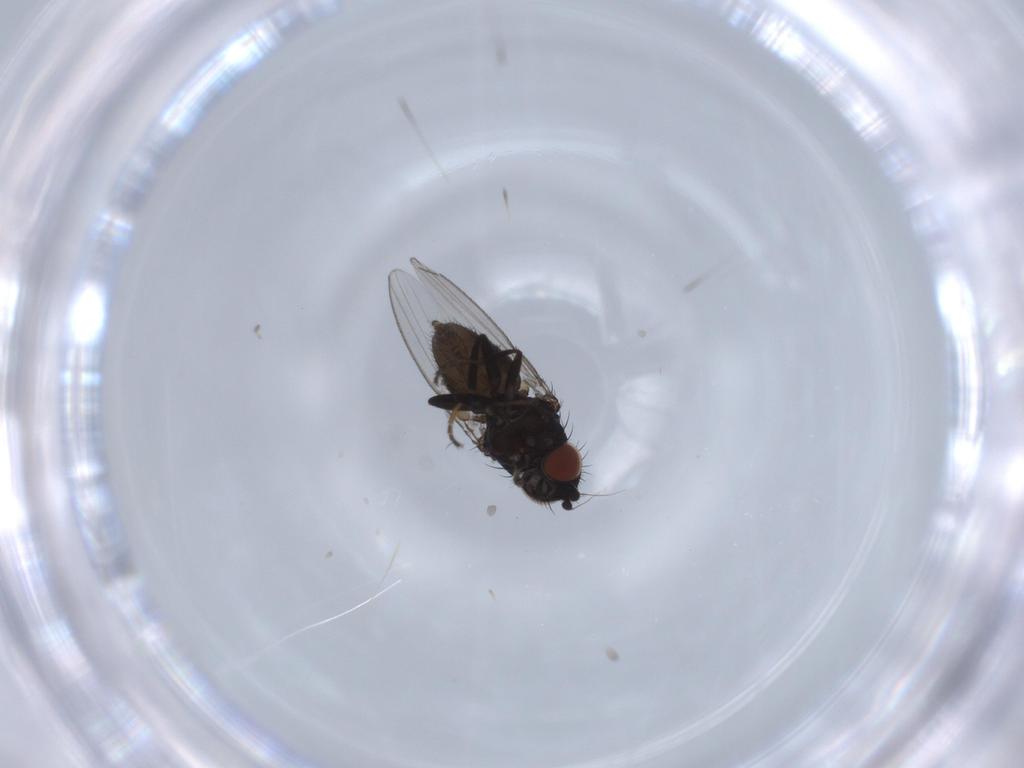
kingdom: Animalia
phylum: Arthropoda
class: Insecta
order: Diptera
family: Milichiidae
